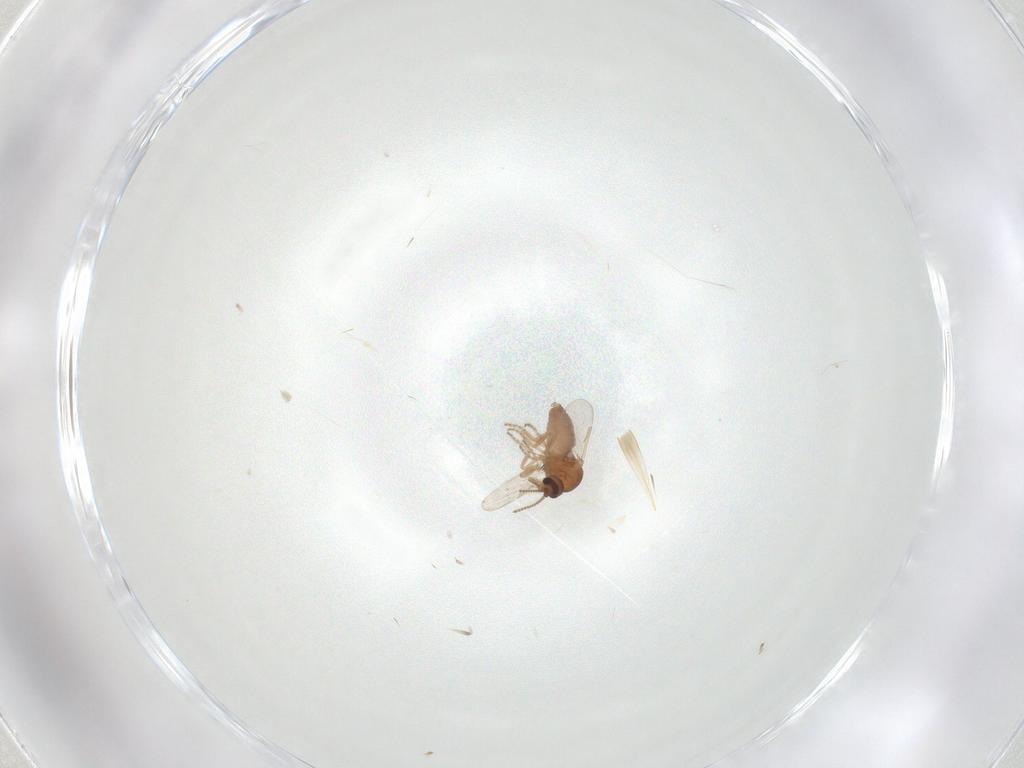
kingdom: Animalia
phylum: Arthropoda
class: Insecta
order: Diptera
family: Ceratopogonidae
